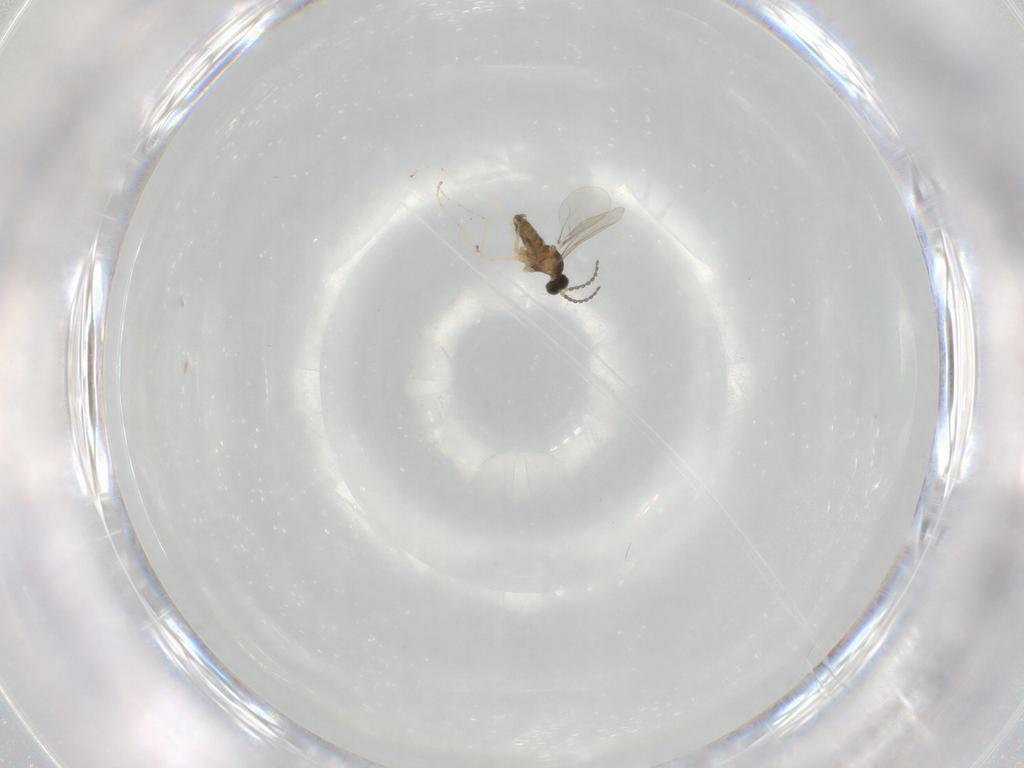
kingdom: Animalia
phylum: Arthropoda
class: Insecta
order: Diptera
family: Cecidomyiidae
